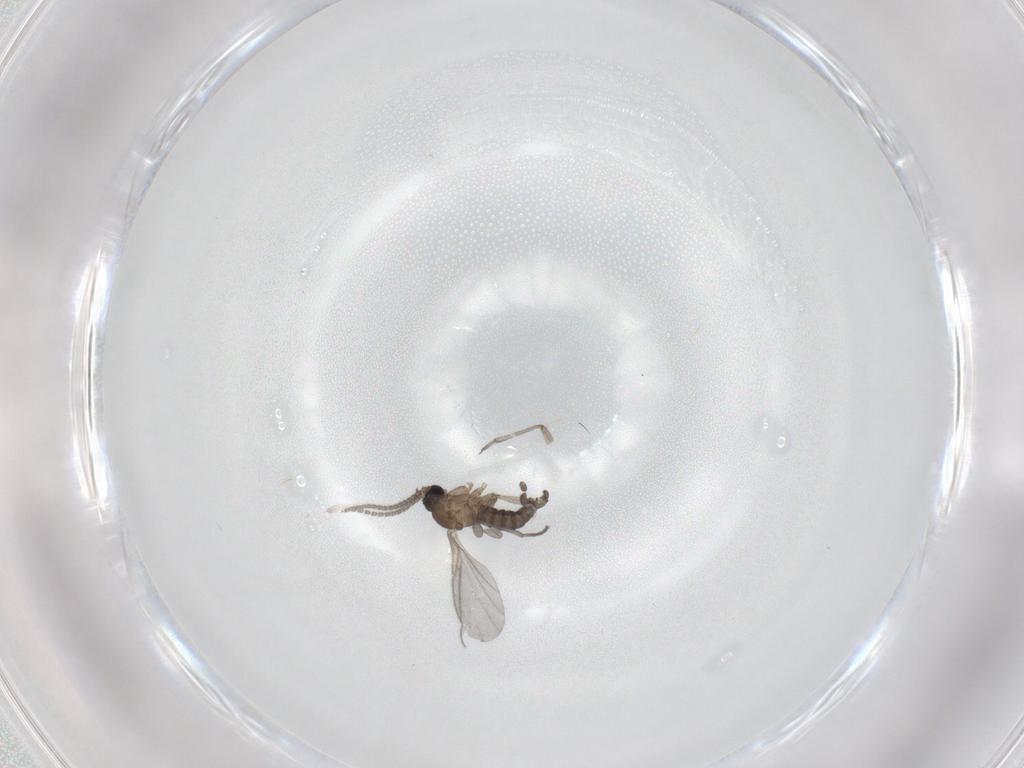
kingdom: Animalia
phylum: Arthropoda
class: Insecta
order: Diptera
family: Sciaridae
